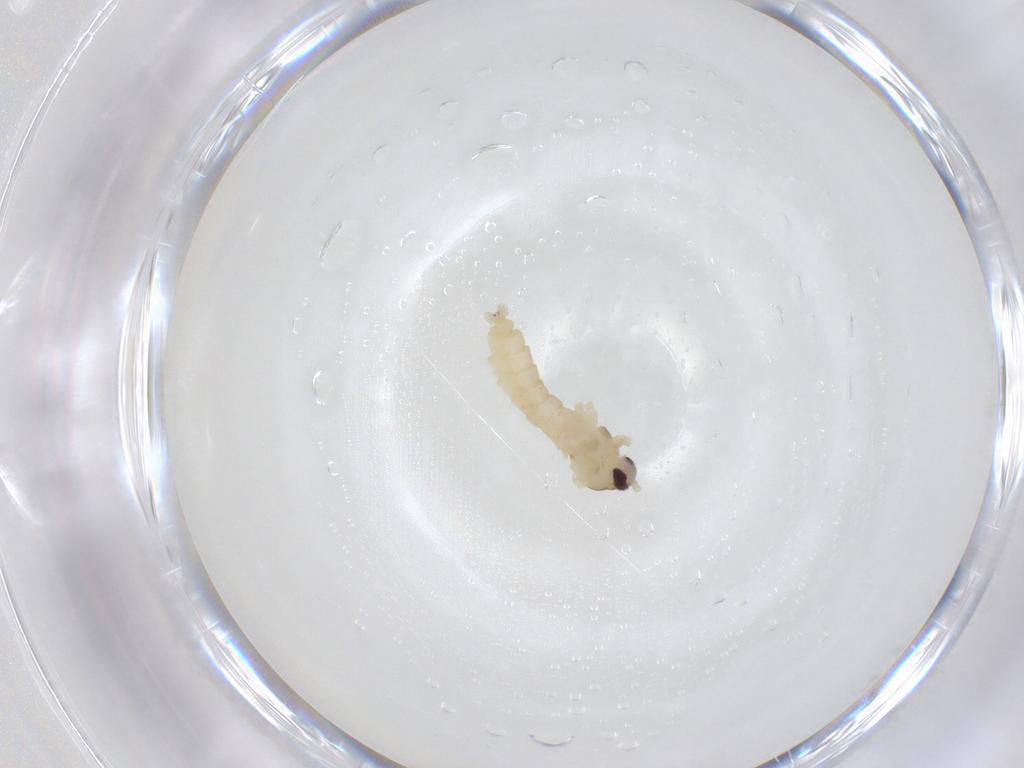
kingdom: Animalia
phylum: Arthropoda
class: Insecta
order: Diptera
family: Cecidomyiidae
